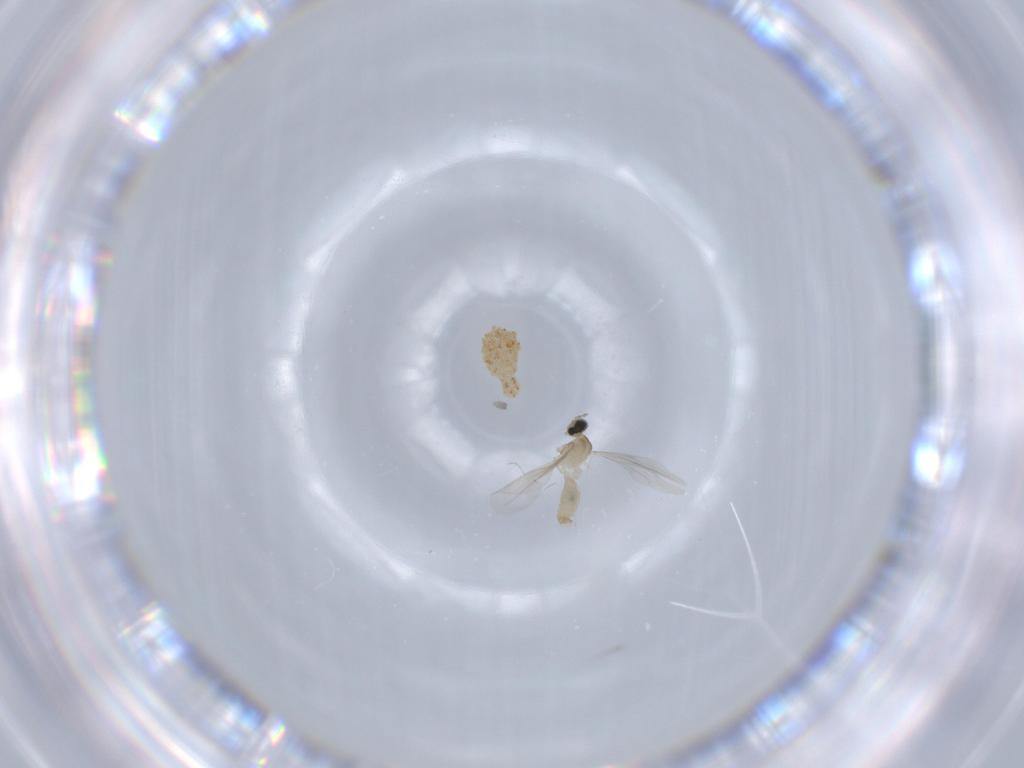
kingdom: Animalia
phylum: Arthropoda
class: Insecta
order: Diptera
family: Cecidomyiidae
